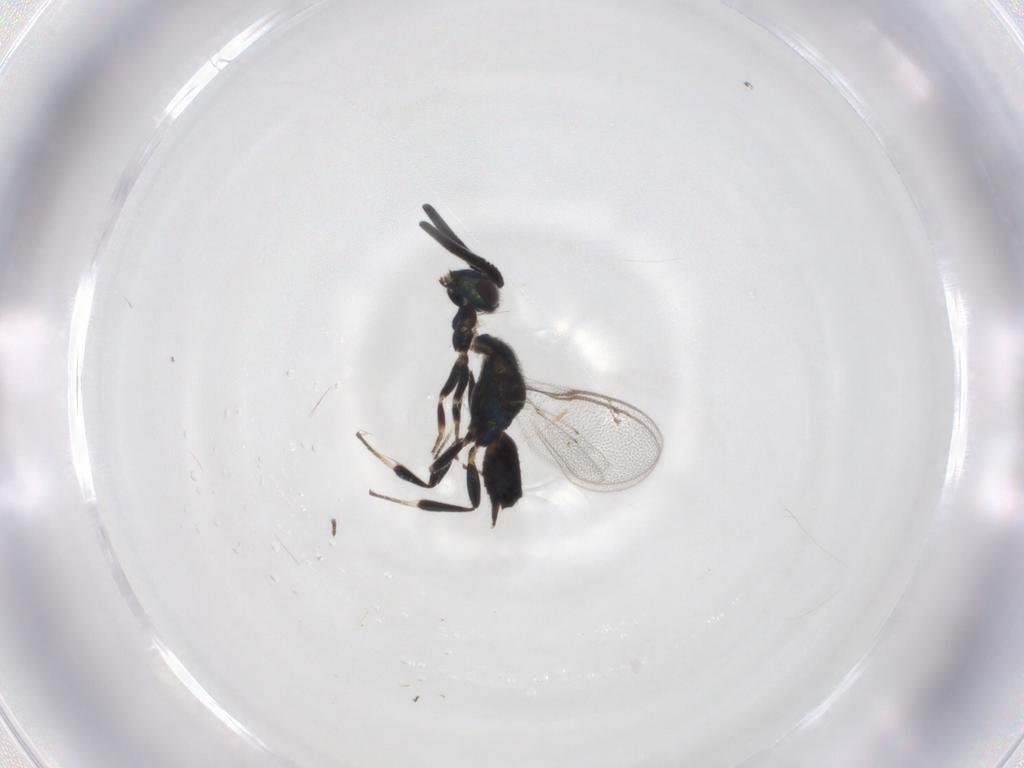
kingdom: Animalia
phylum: Arthropoda
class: Insecta
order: Hymenoptera
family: Eupelmidae
